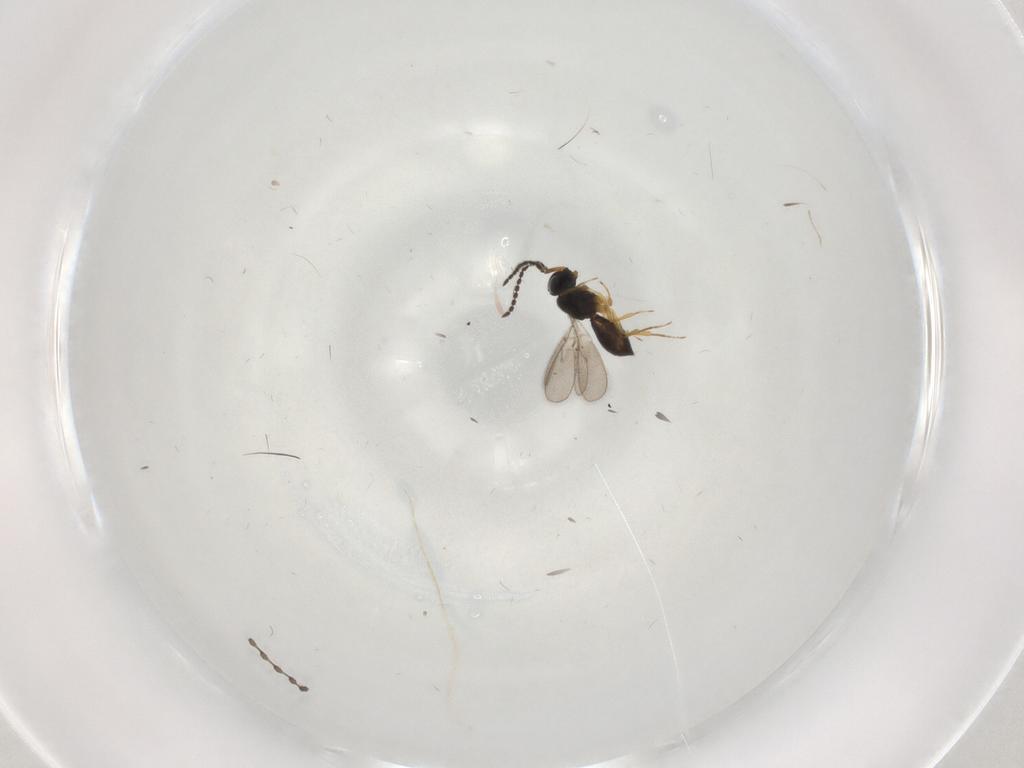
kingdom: Animalia
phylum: Arthropoda
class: Insecta
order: Hymenoptera
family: Scelionidae
